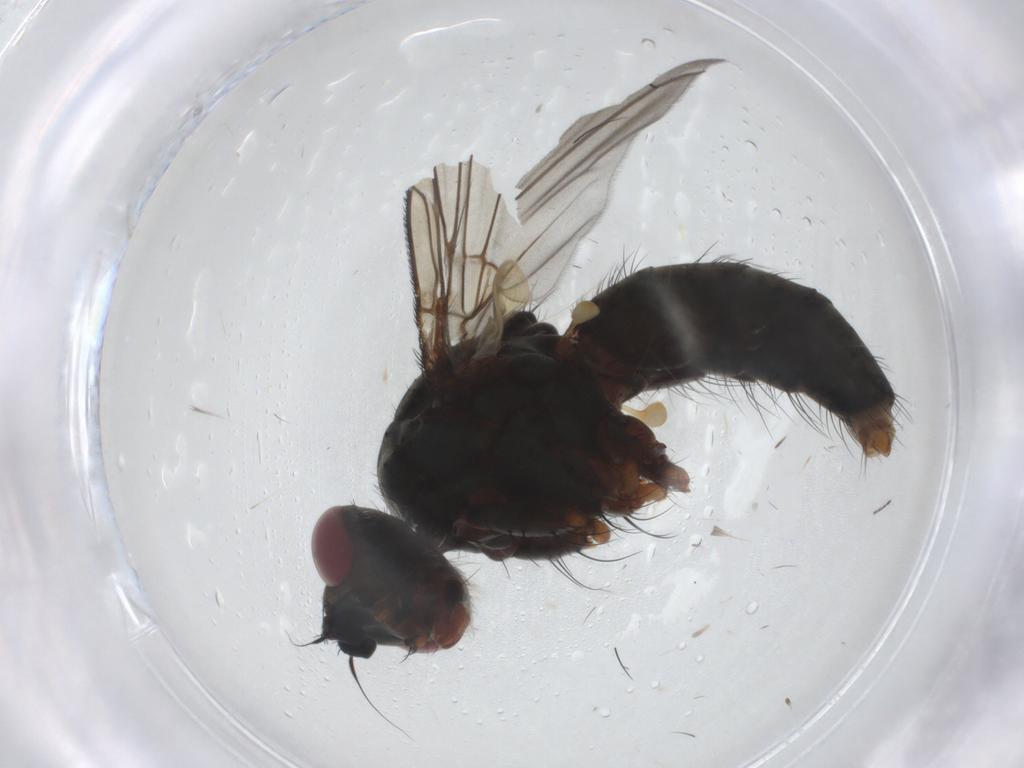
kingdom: Animalia
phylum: Arthropoda
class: Insecta
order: Diptera
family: Tachinidae
